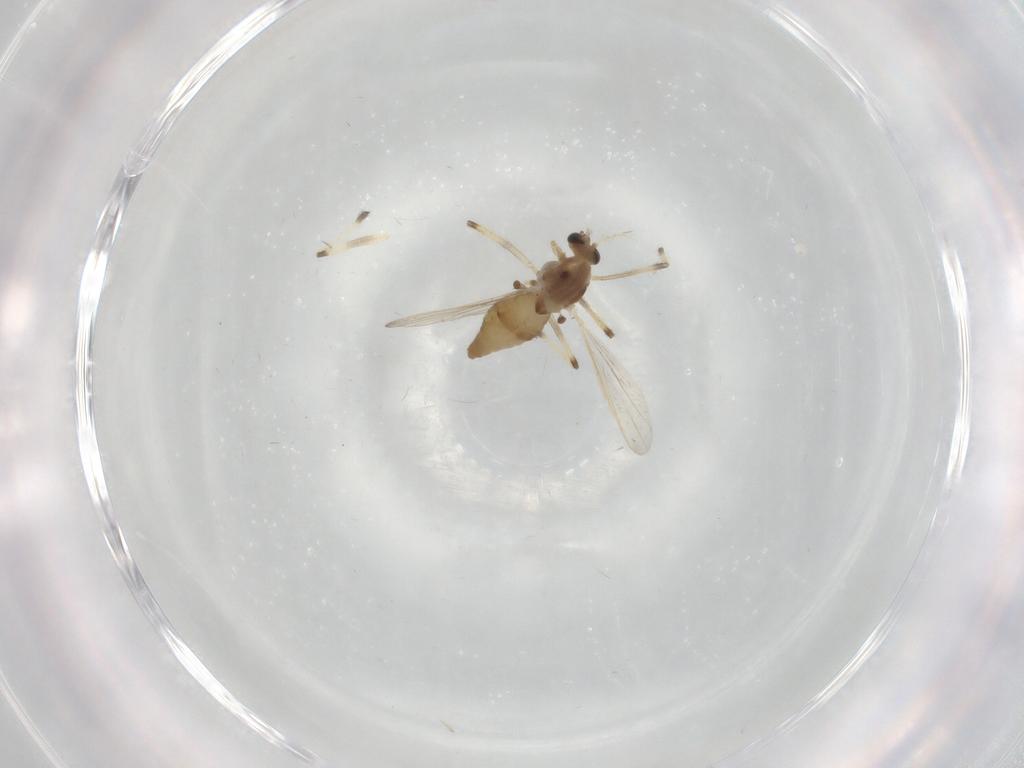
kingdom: Animalia
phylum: Arthropoda
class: Insecta
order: Diptera
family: Chironomidae
